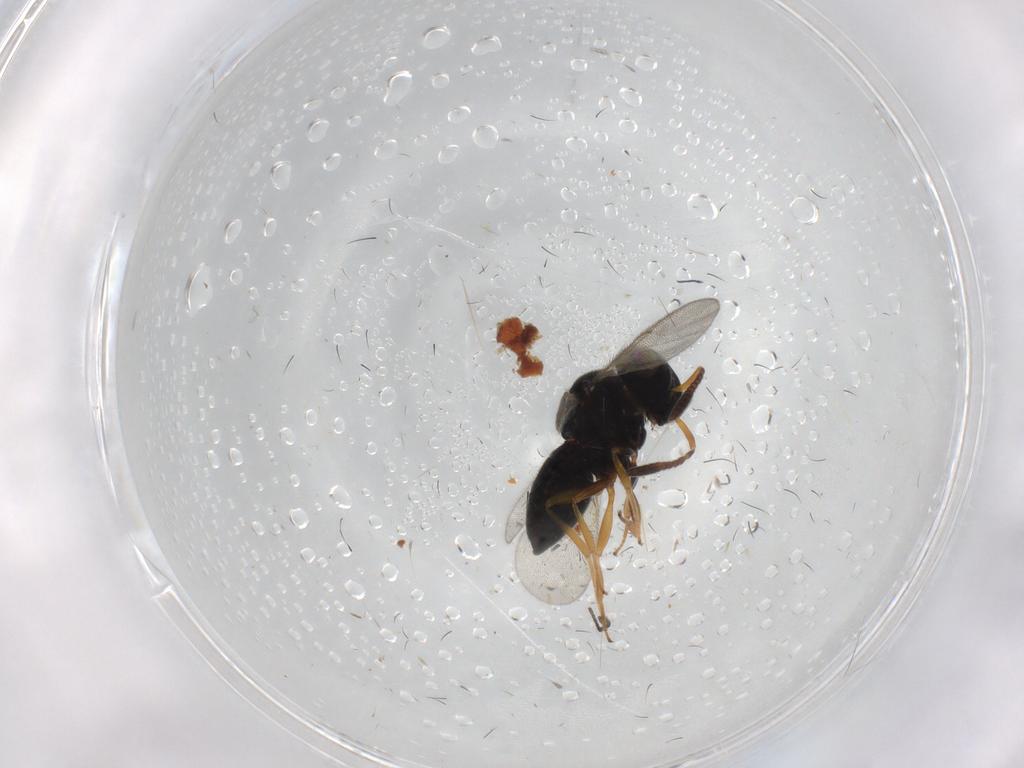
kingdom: Animalia
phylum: Arthropoda
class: Insecta
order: Hymenoptera
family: Scelionidae
